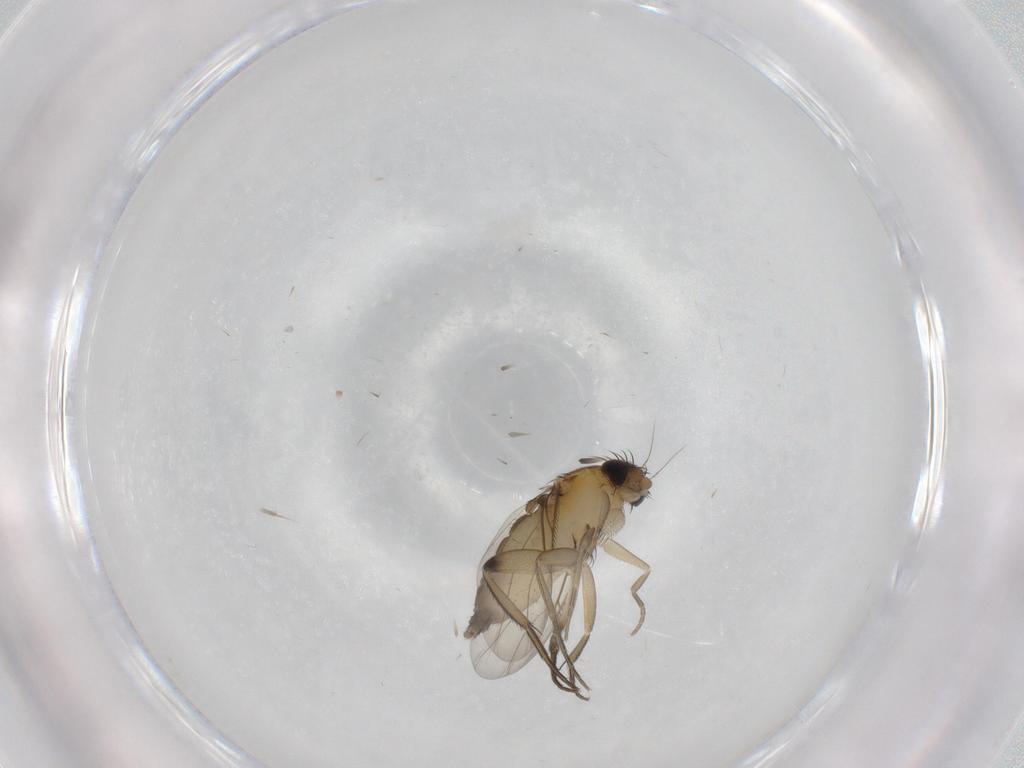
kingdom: Animalia
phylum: Arthropoda
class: Insecta
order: Diptera
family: Phoridae
